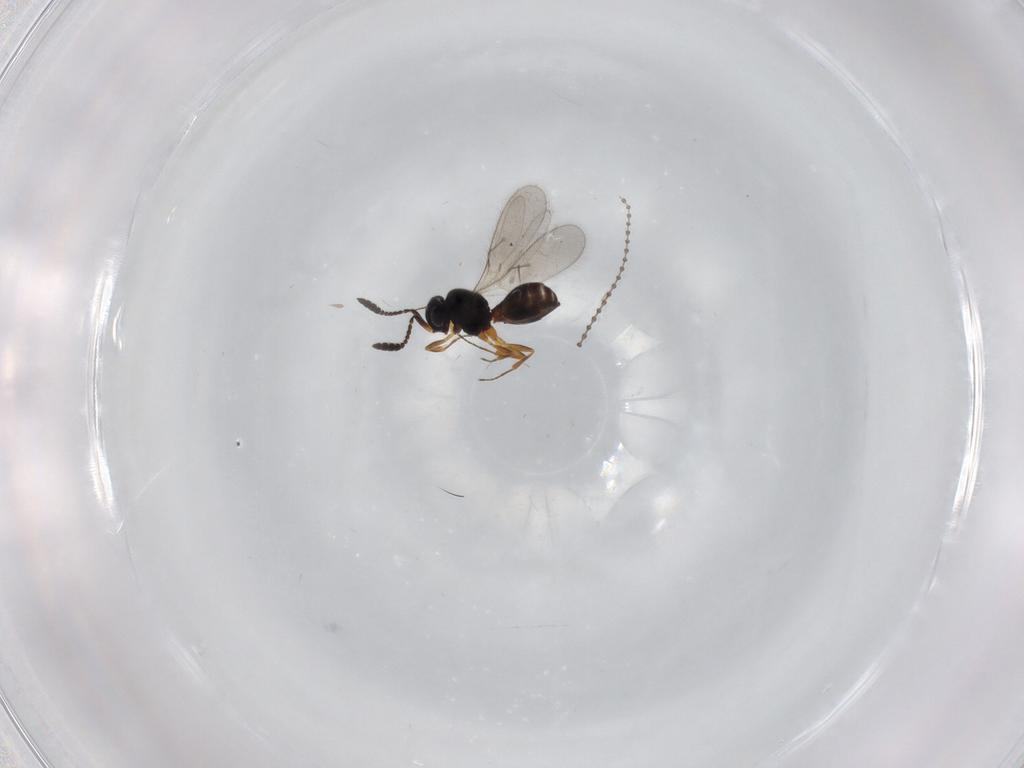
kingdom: Animalia
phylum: Arthropoda
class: Insecta
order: Hymenoptera
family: Scelionidae
